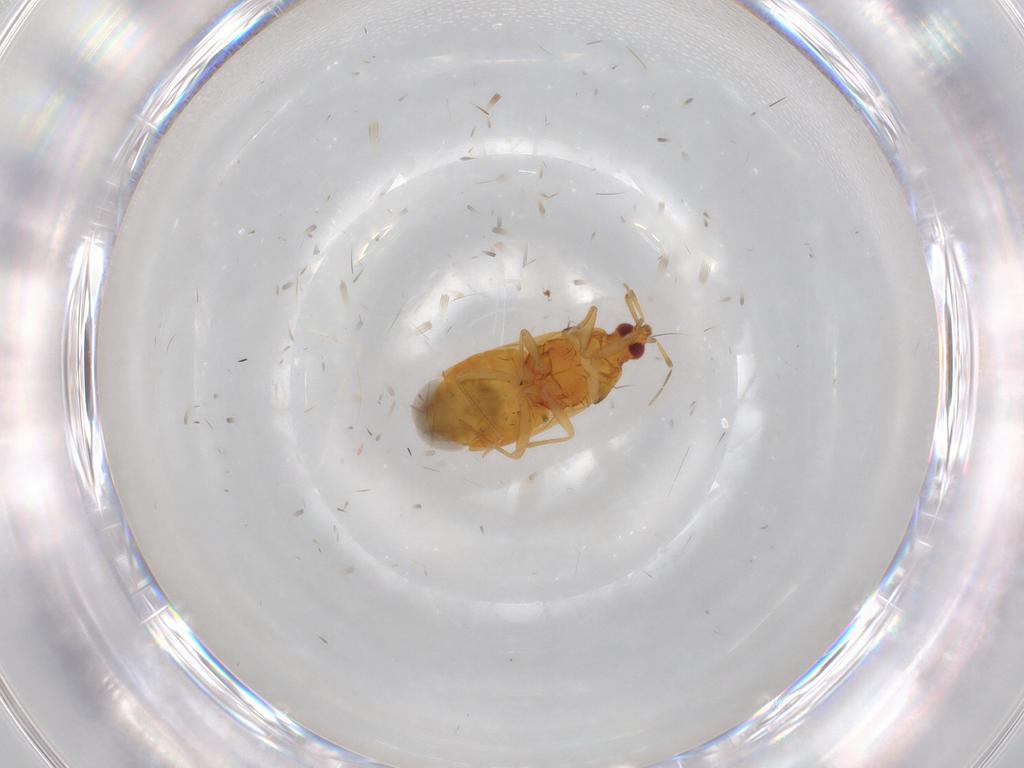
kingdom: Animalia
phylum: Arthropoda
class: Insecta
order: Hemiptera
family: Anthocoridae
